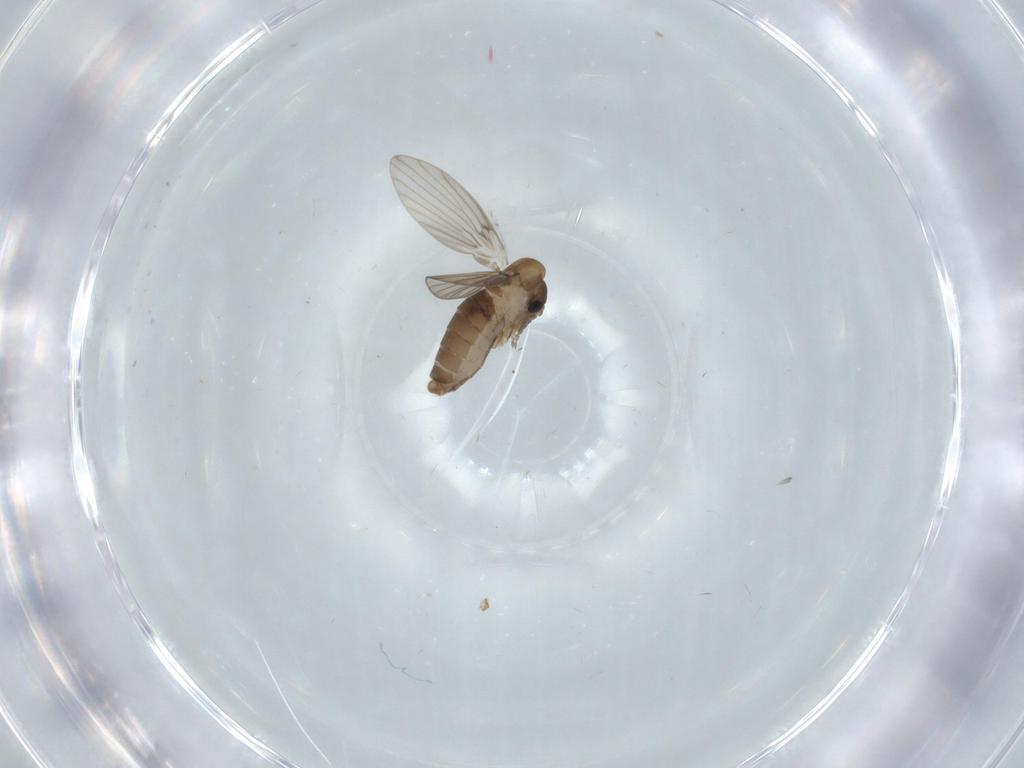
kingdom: Animalia
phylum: Arthropoda
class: Insecta
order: Diptera
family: Psychodidae
